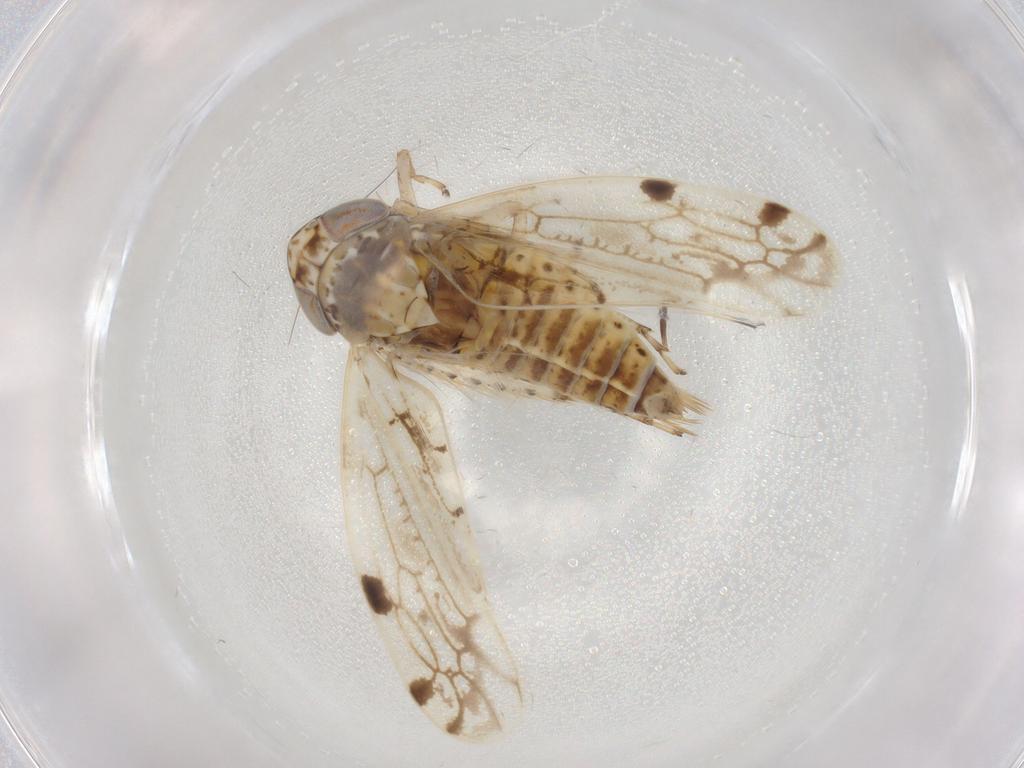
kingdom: Animalia
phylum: Arthropoda
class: Insecta
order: Hemiptera
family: Cicadellidae
